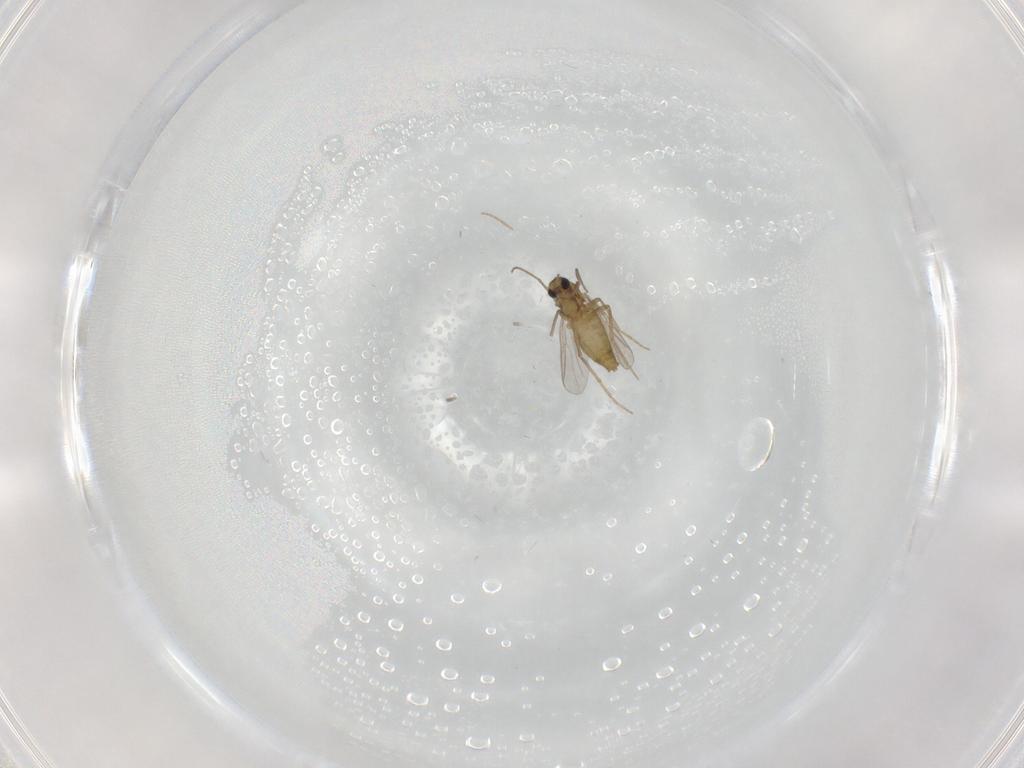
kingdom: Animalia
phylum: Arthropoda
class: Insecta
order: Diptera
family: Chironomidae
